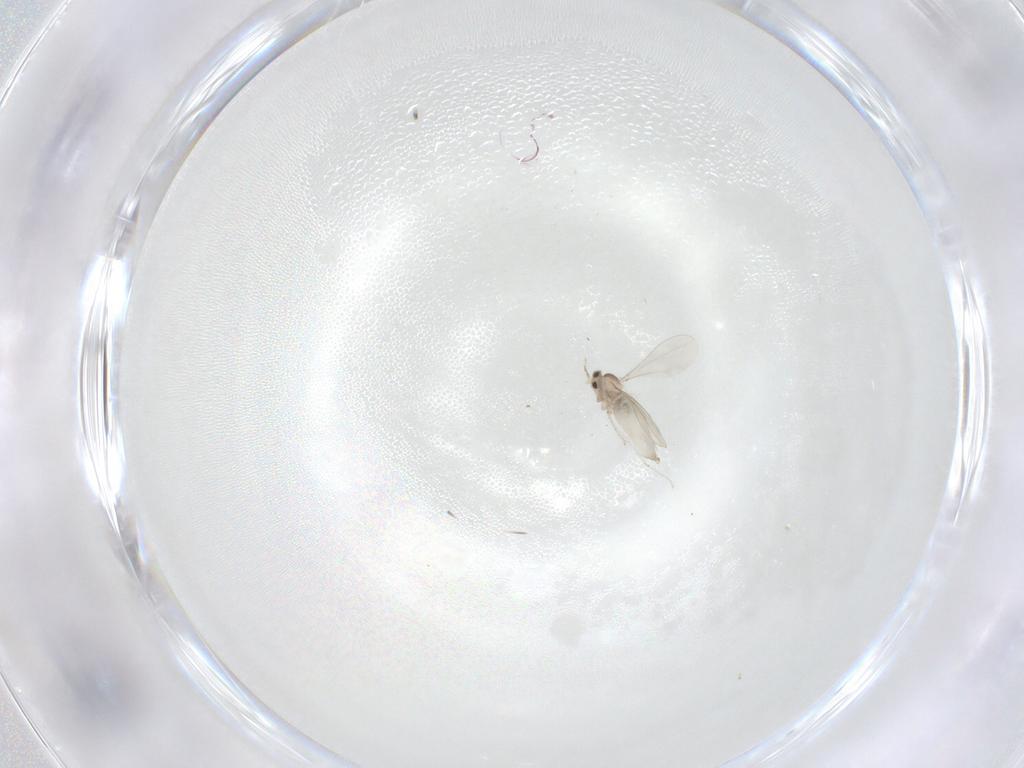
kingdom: Animalia
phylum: Arthropoda
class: Insecta
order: Diptera
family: Cecidomyiidae
